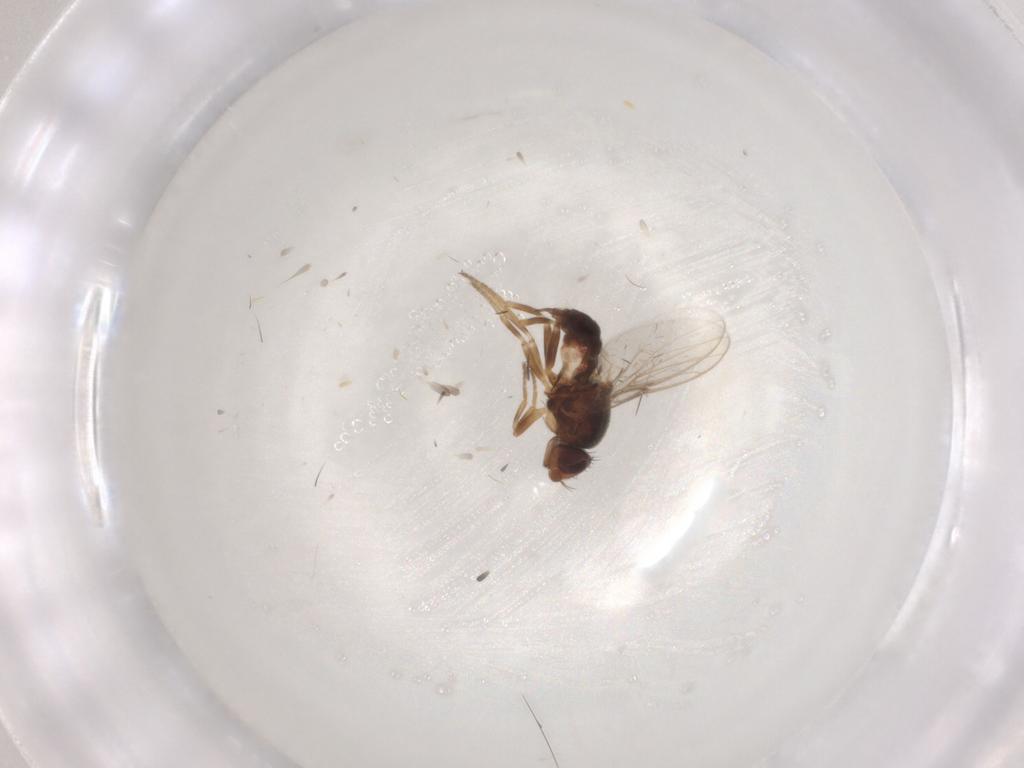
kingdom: Animalia
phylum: Arthropoda
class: Insecta
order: Diptera
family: Chloropidae
